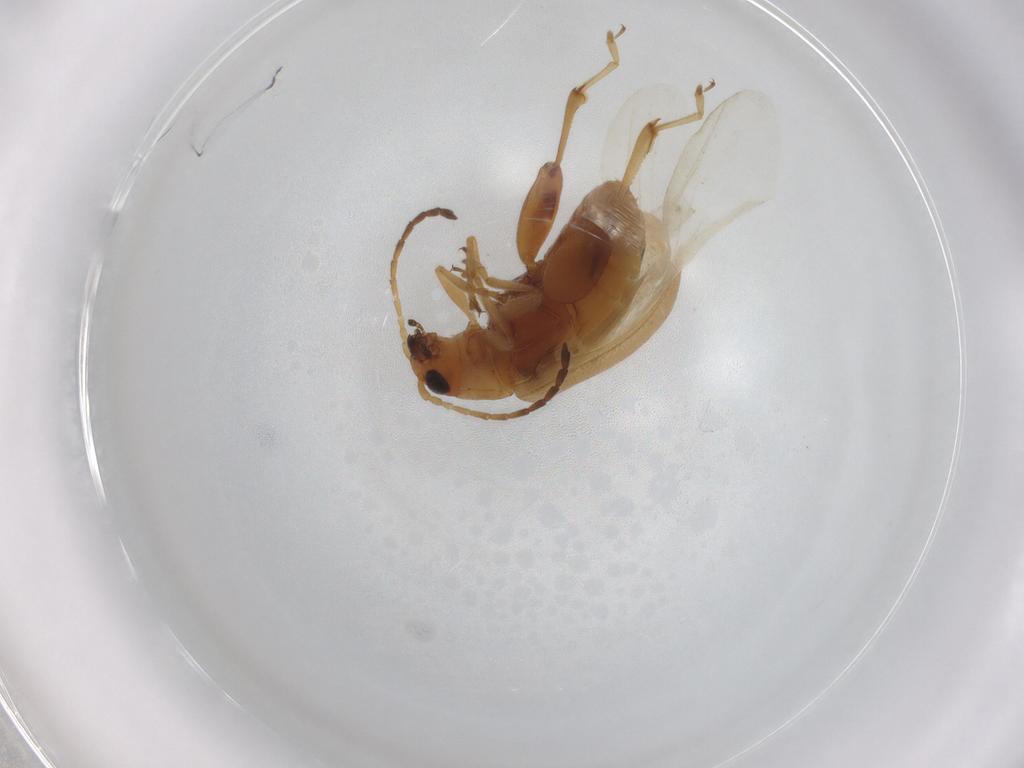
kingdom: Animalia
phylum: Arthropoda
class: Insecta
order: Coleoptera
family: Chrysomelidae
